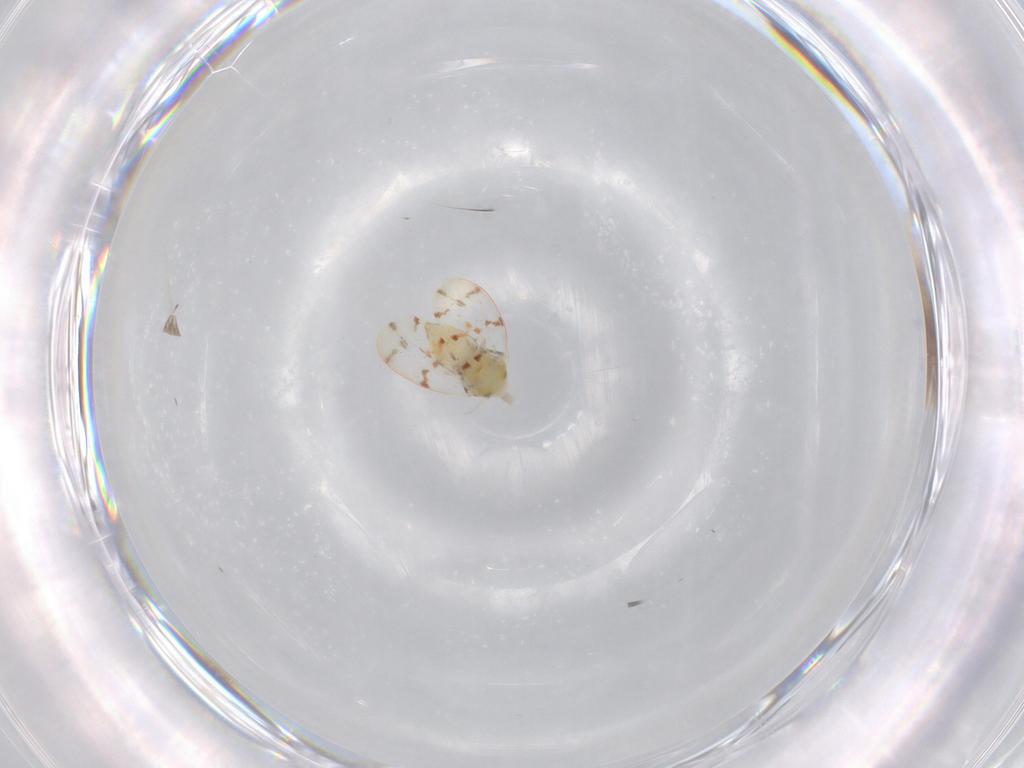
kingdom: Animalia
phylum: Arthropoda
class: Insecta
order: Hemiptera
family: Aleyrodidae
